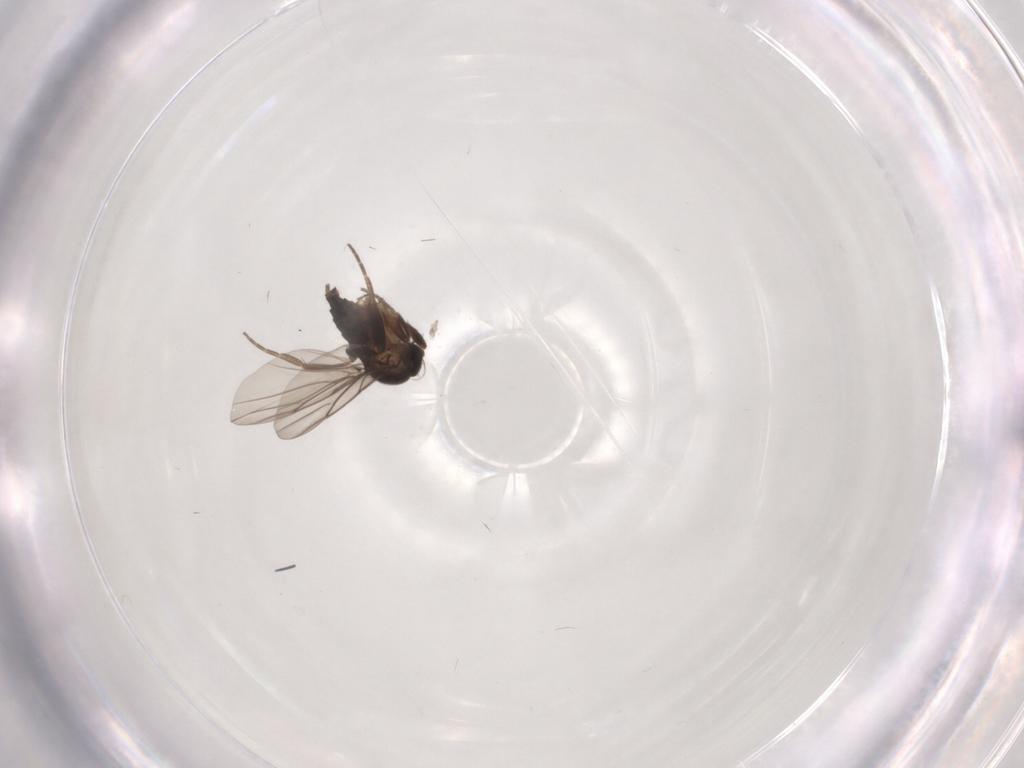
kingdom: Animalia
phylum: Arthropoda
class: Insecta
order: Diptera
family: Phoridae
